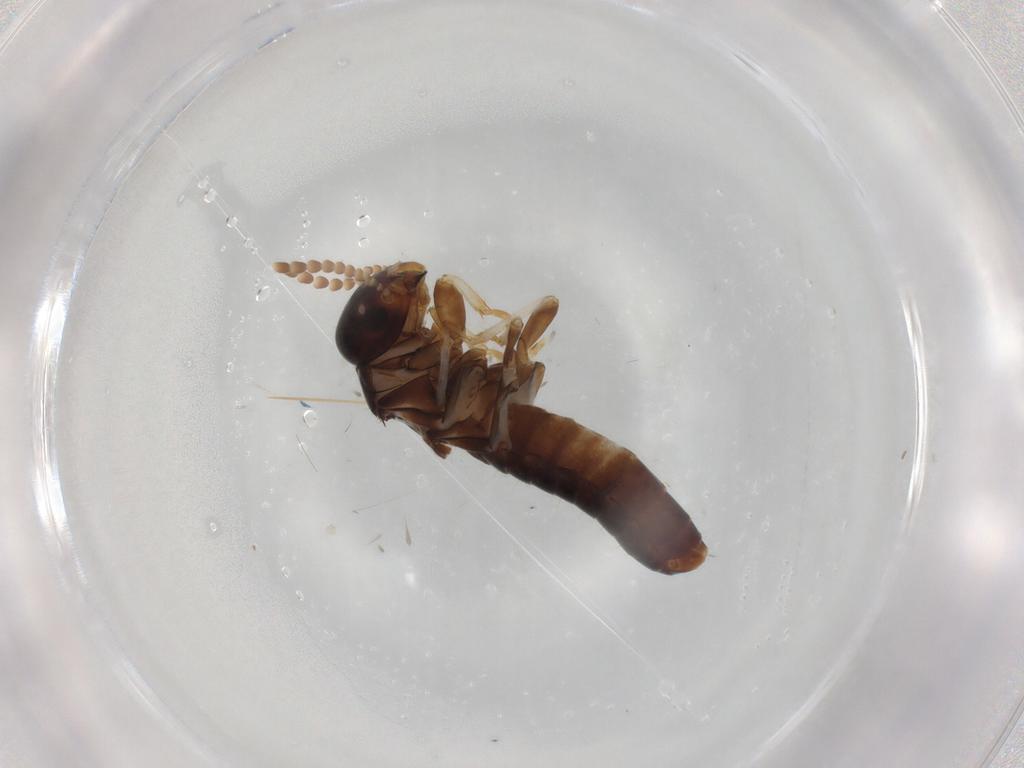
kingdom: Animalia
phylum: Arthropoda
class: Insecta
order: Blattodea
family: Kalotermitidae
